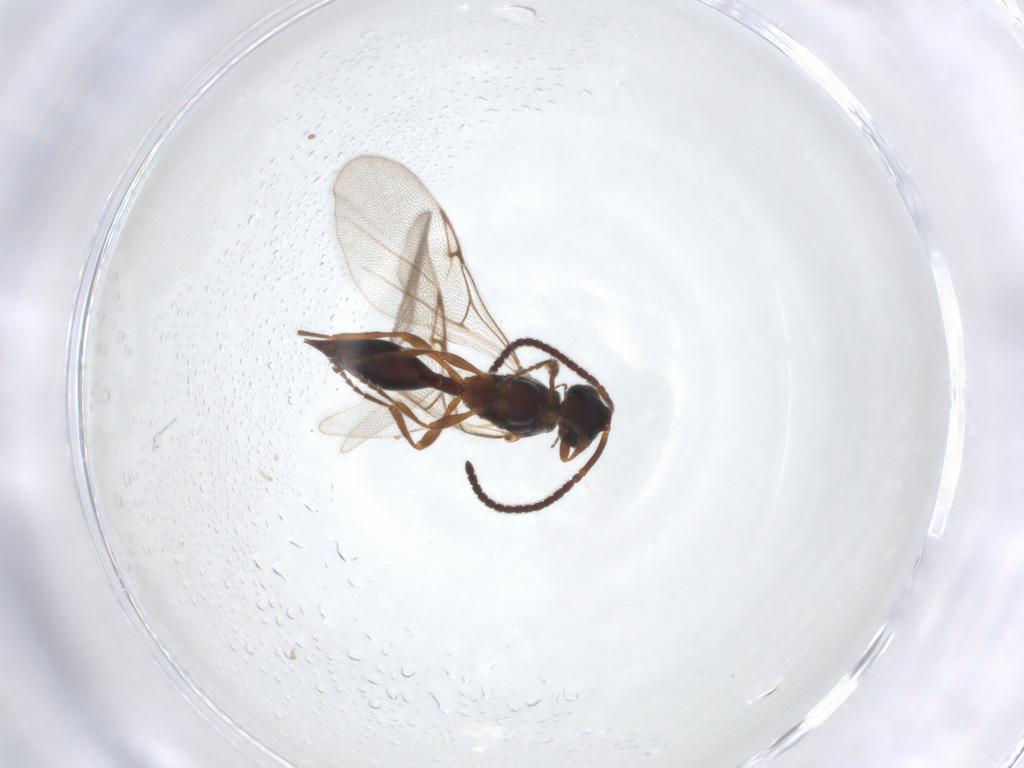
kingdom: Animalia
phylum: Arthropoda
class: Insecta
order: Hymenoptera
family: Diapriidae
